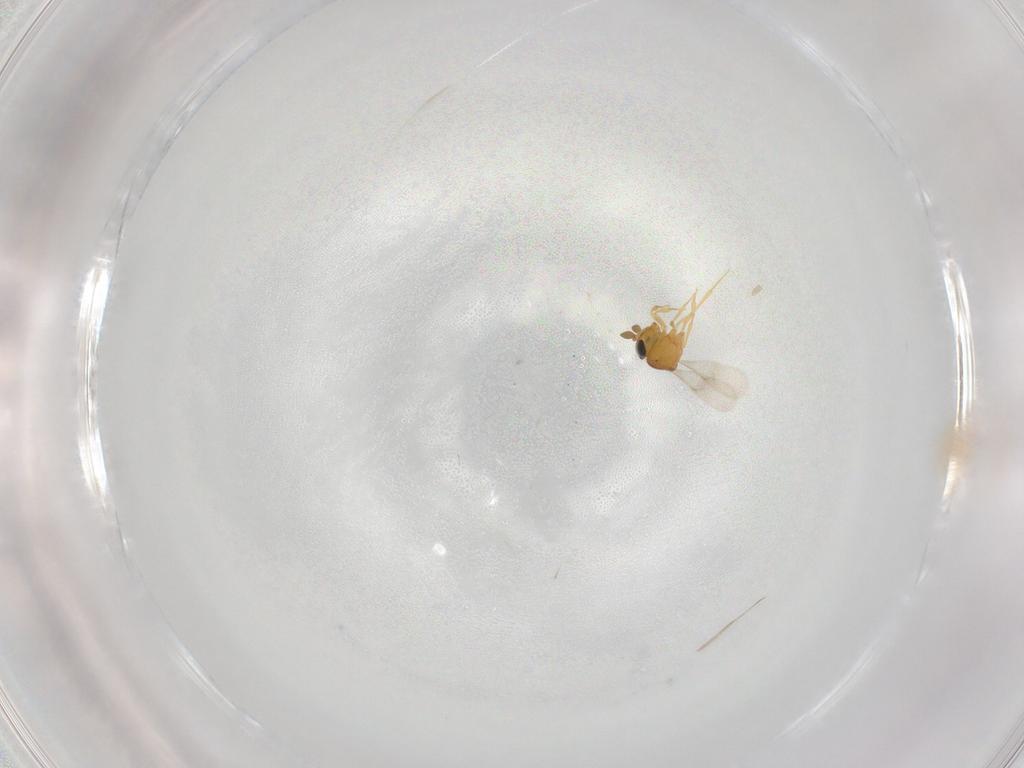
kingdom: Animalia
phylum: Arthropoda
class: Insecta
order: Hymenoptera
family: Scelionidae
